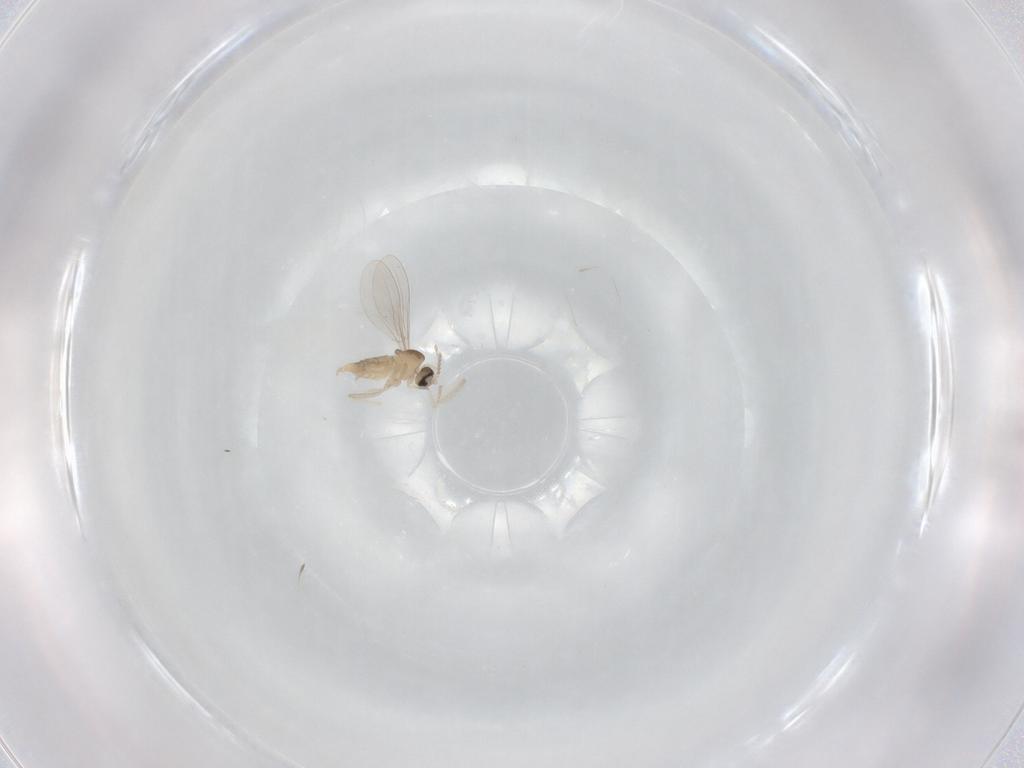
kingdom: Animalia
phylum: Arthropoda
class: Insecta
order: Diptera
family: Cecidomyiidae
